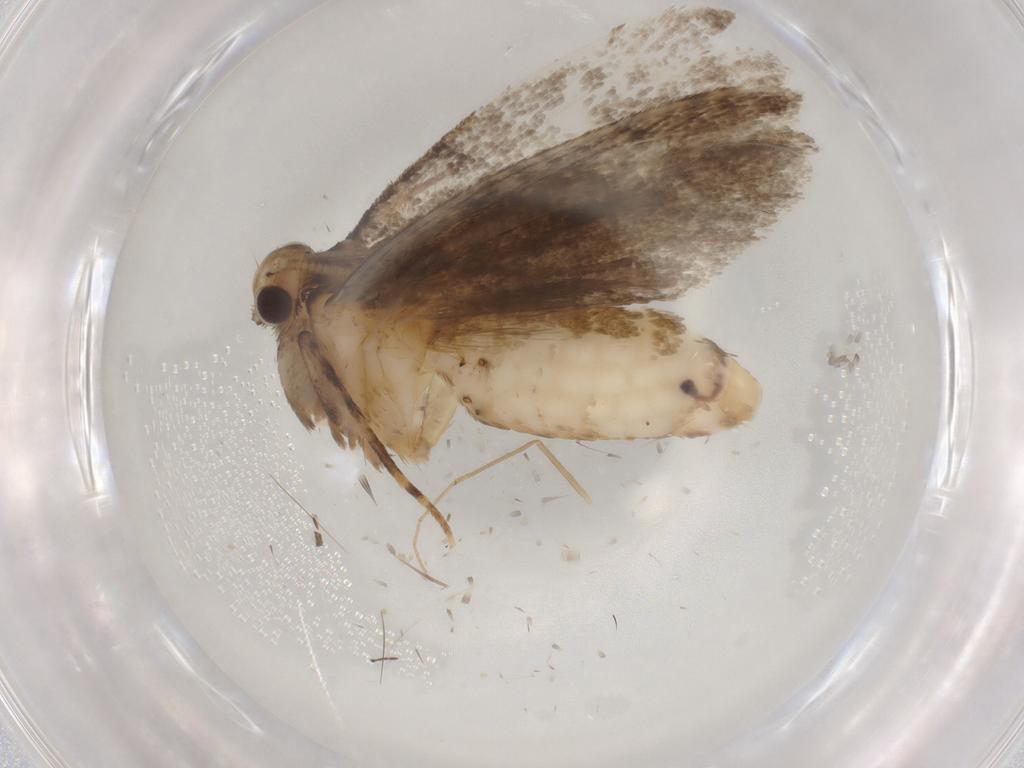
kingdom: Animalia
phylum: Arthropoda
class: Insecta
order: Lepidoptera
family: Tineidae
